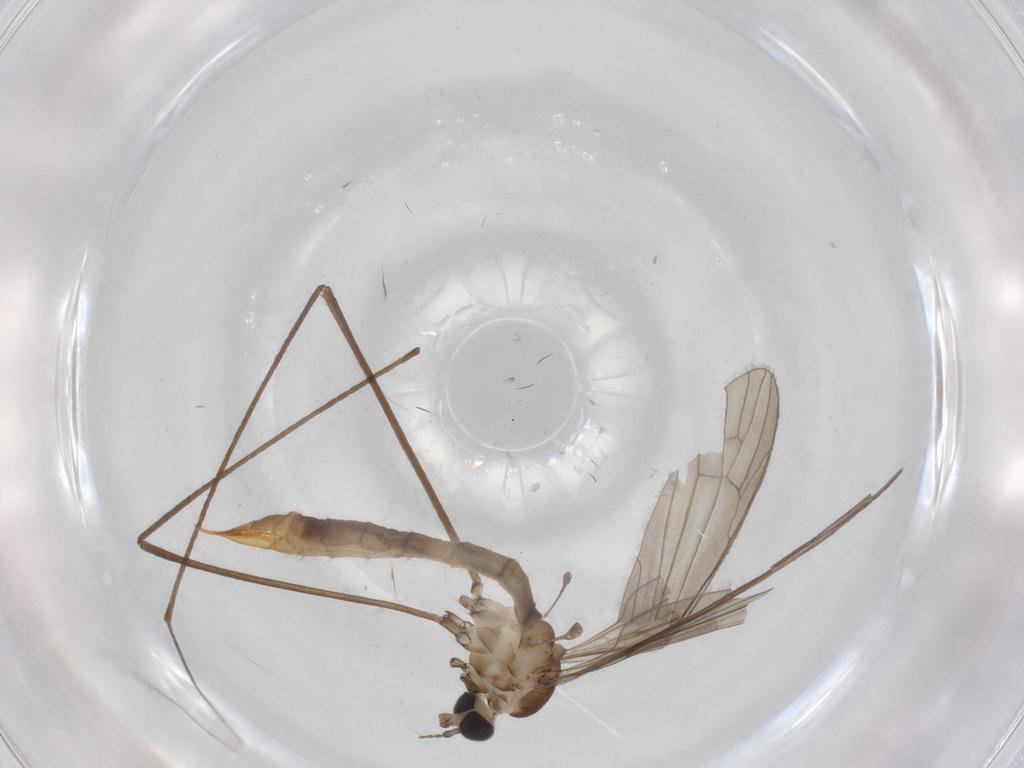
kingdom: Animalia
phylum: Arthropoda
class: Insecta
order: Diptera
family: Limoniidae
